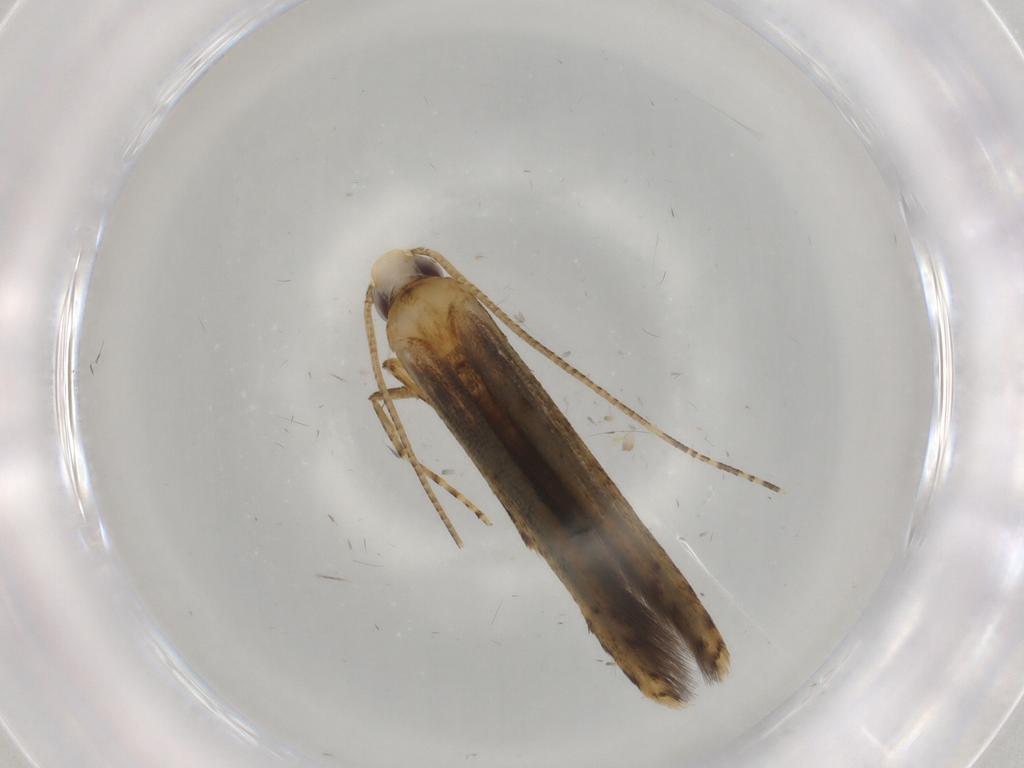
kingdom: Animalia
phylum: Arthropoda
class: Insecta
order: Lepidoptera
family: Batrachedridae
